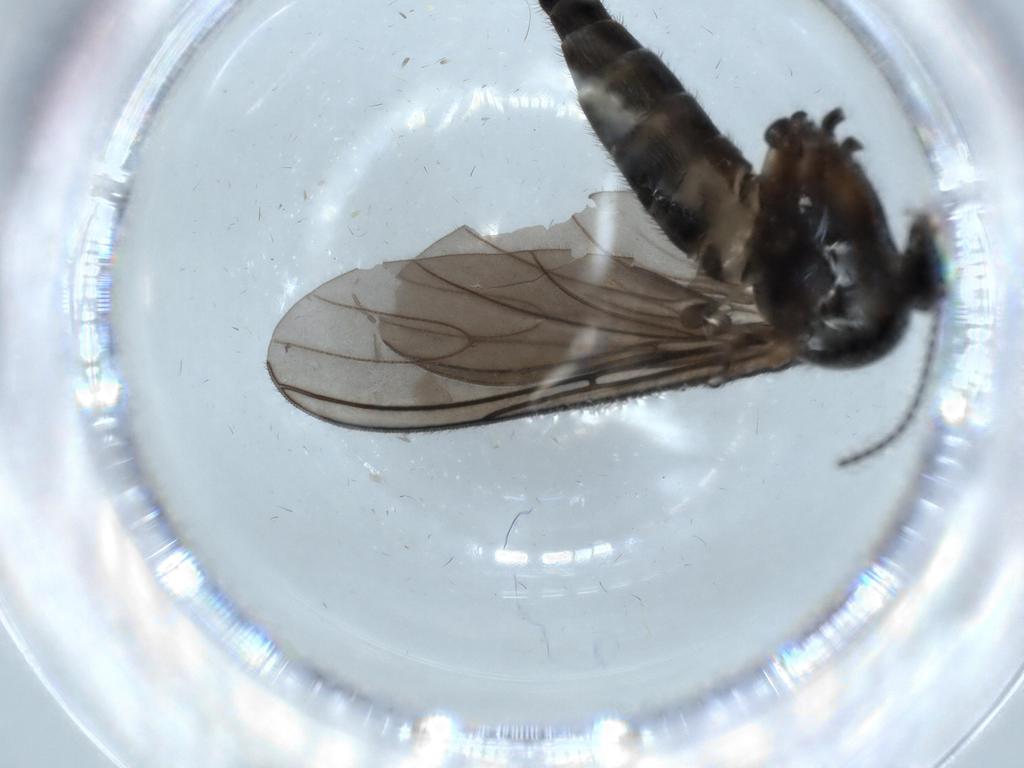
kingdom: Animalia
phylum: Arthropoda
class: Insecta
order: Diptera
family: Sciaridae
